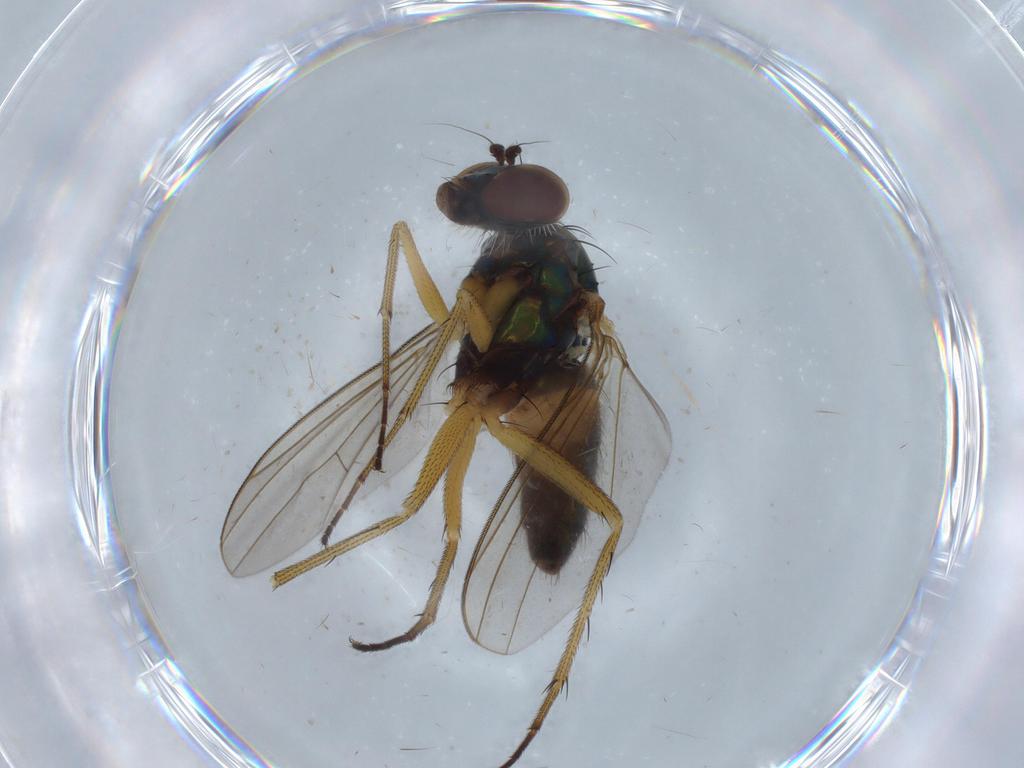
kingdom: Animalia
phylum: Arthropoda
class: Insecta
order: Diptera
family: Dolichopodidae
